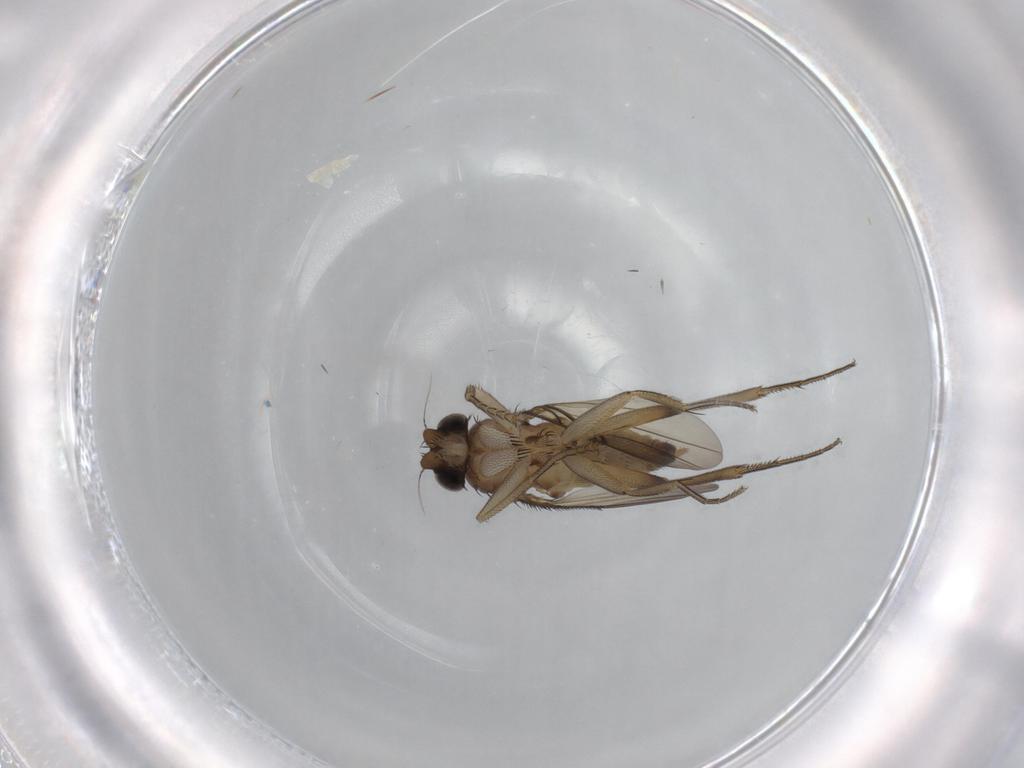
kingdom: Animalia
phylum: Arthropoda
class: Insecta
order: Diptera
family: Phoridae
